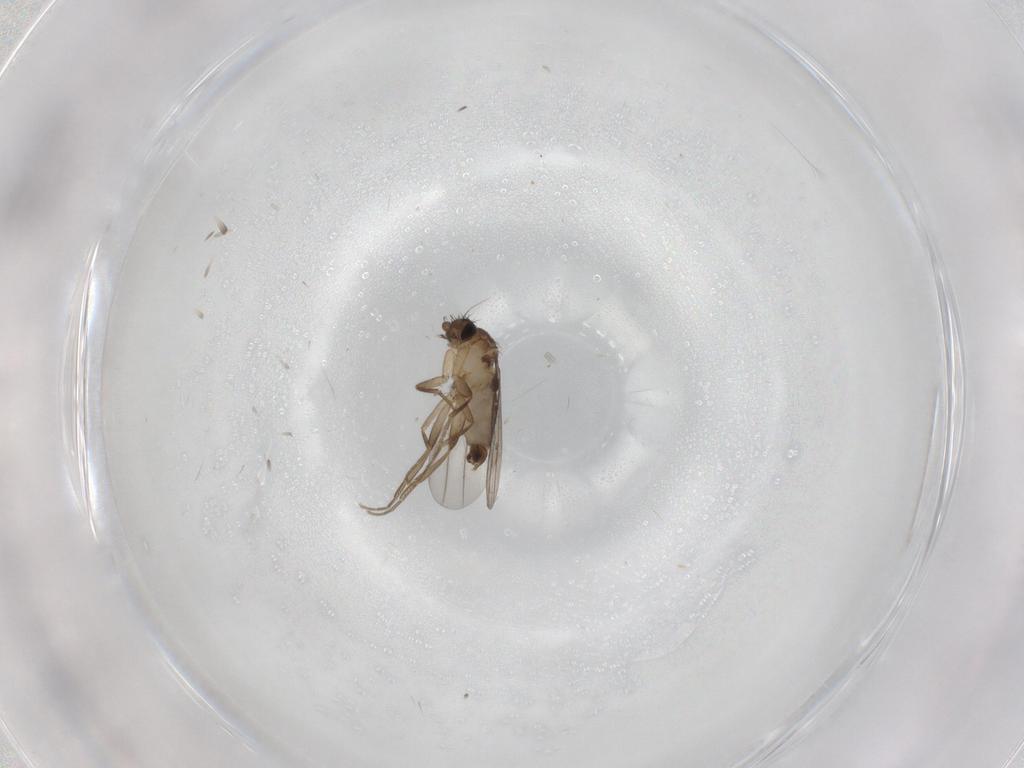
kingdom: Animalia
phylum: Arthropoda
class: Insecta
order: Diptera
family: Phoridae
